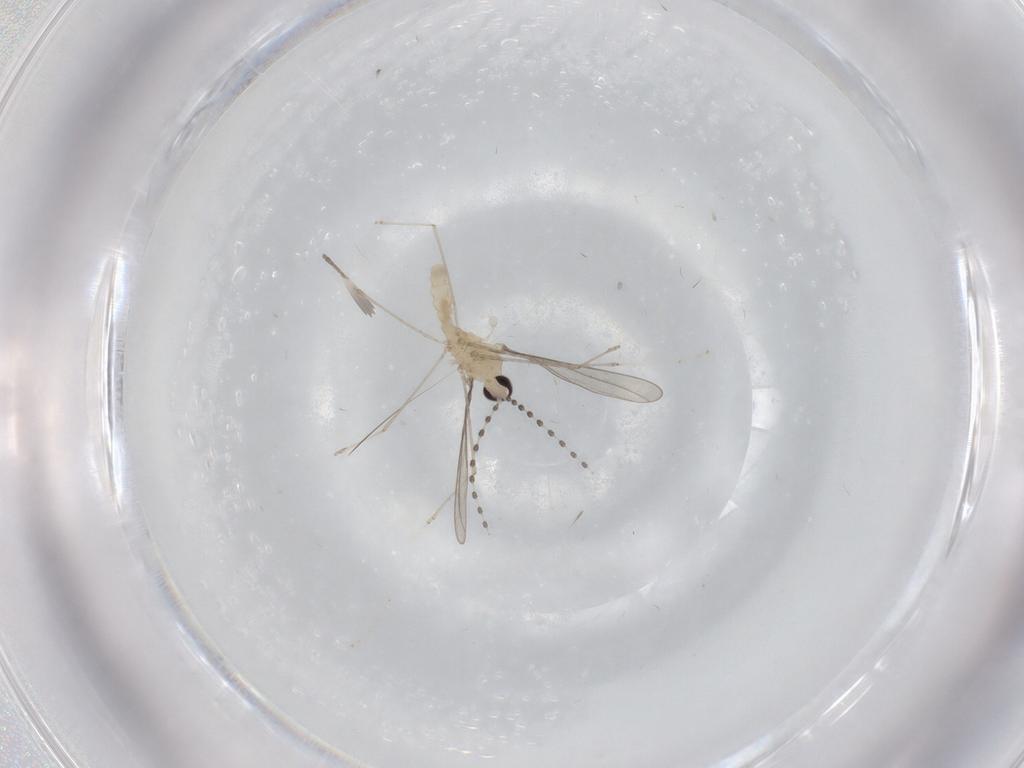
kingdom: Animalia
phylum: Arthropoda
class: Insecta
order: Diptera
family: Cecidomyiidae
